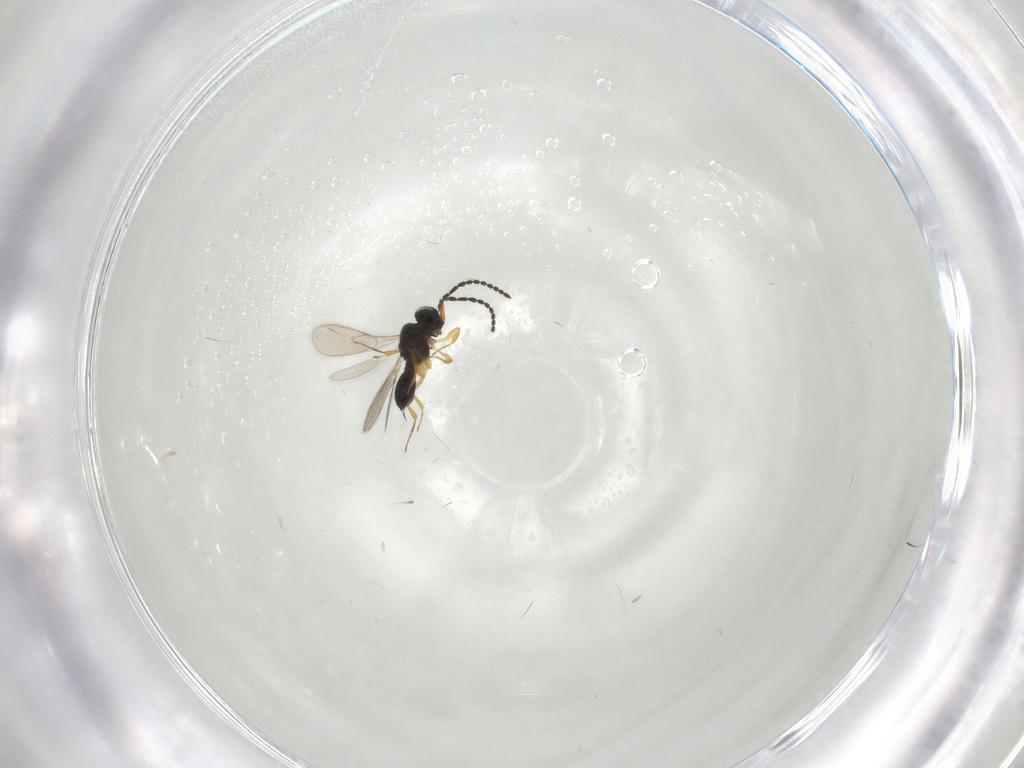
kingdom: Animalia
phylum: Arthropoda
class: Insecta
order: Hymenoptera
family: Scelionidae
